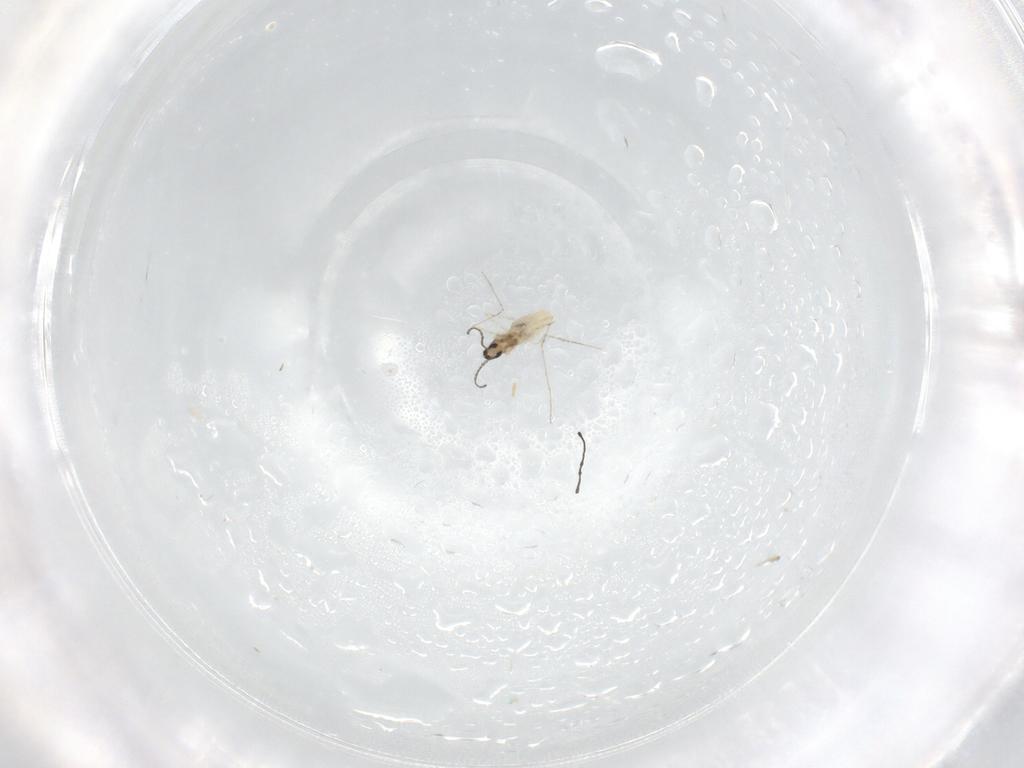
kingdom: Animalia
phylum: Arthropoda
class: Insecta
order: Diptera
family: Cecidomyiidae
